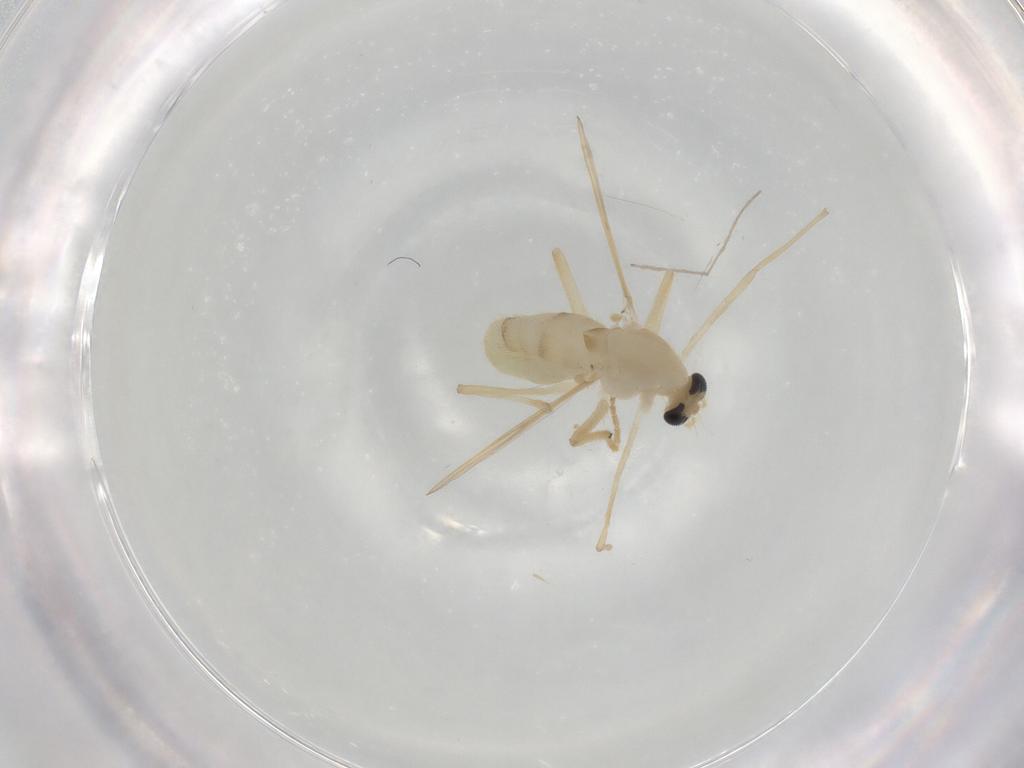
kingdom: Animalia
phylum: Arthropoda
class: Insecta
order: Diptera
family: Chironomidae
